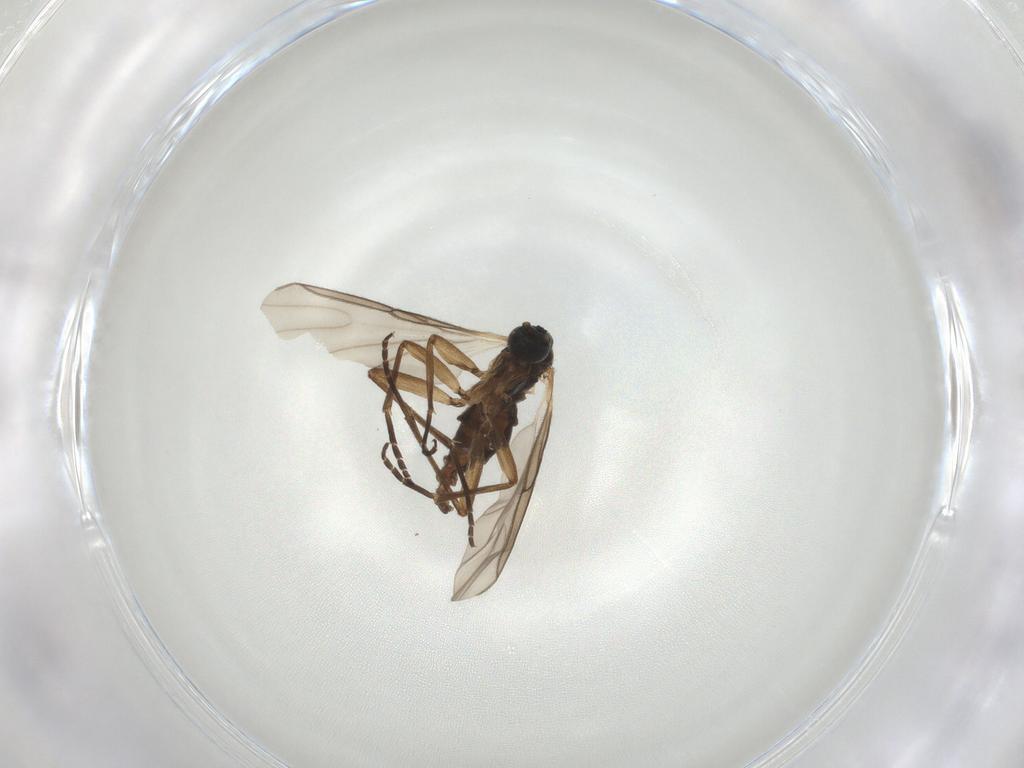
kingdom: Animalia
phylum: Arthropoda
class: Insecta
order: Diptera
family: Sciaridae
